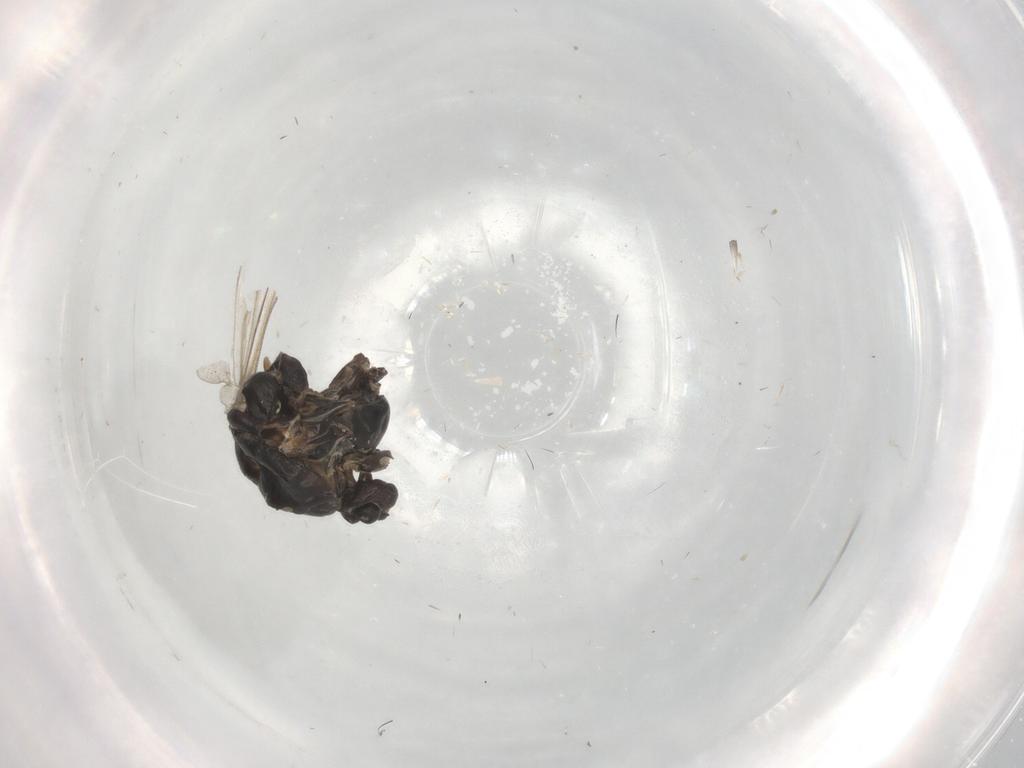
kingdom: Animalia
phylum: Arthropoda
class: Insecta
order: Diptera
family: Chironomidae
